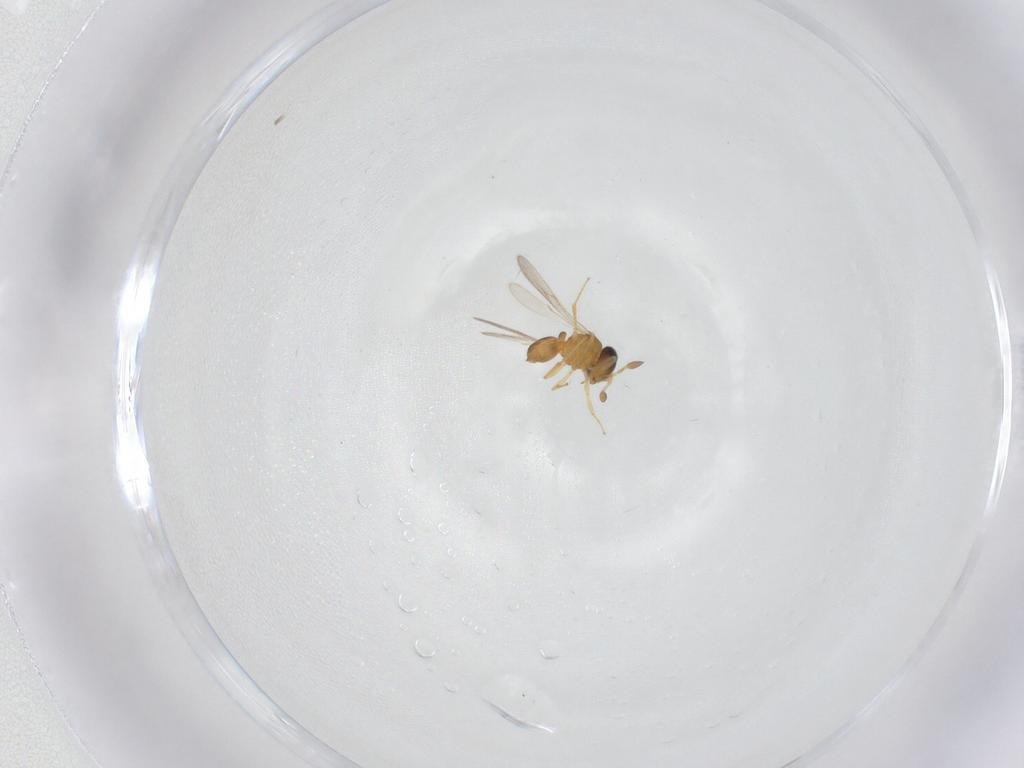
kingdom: Animalia
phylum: Arthropoda
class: Insecta
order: Hymenoptera
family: Scelionidae
